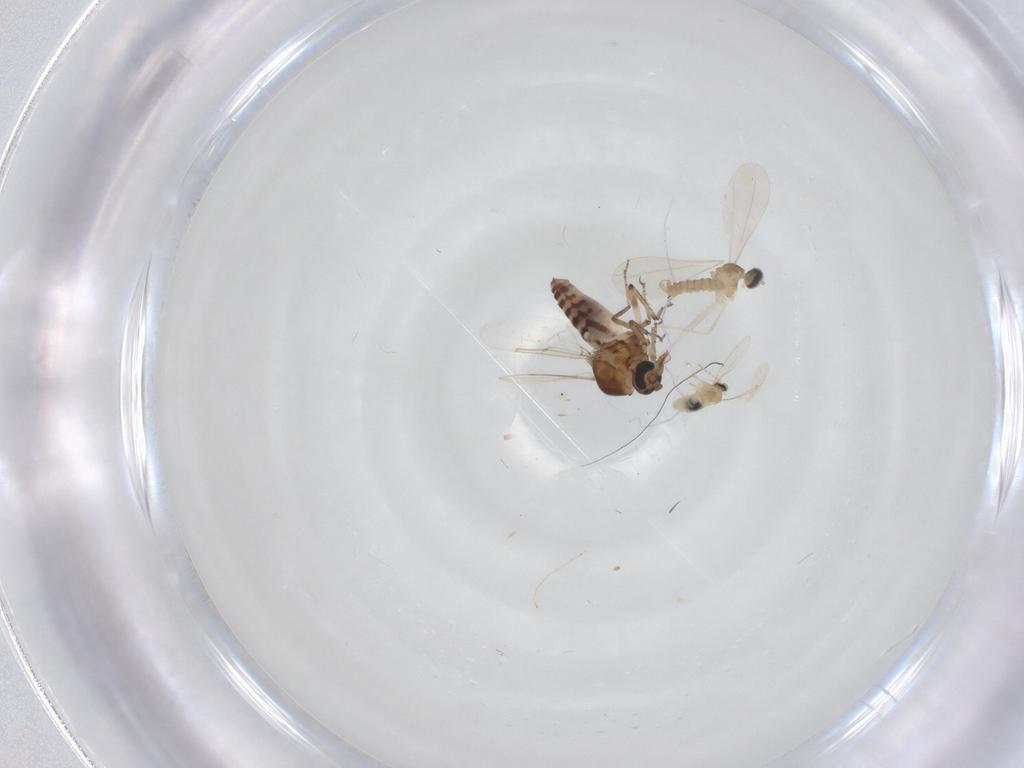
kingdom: Animalia
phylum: Arthropoda
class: Insecta
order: Diptera
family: Ceratopogonidae
